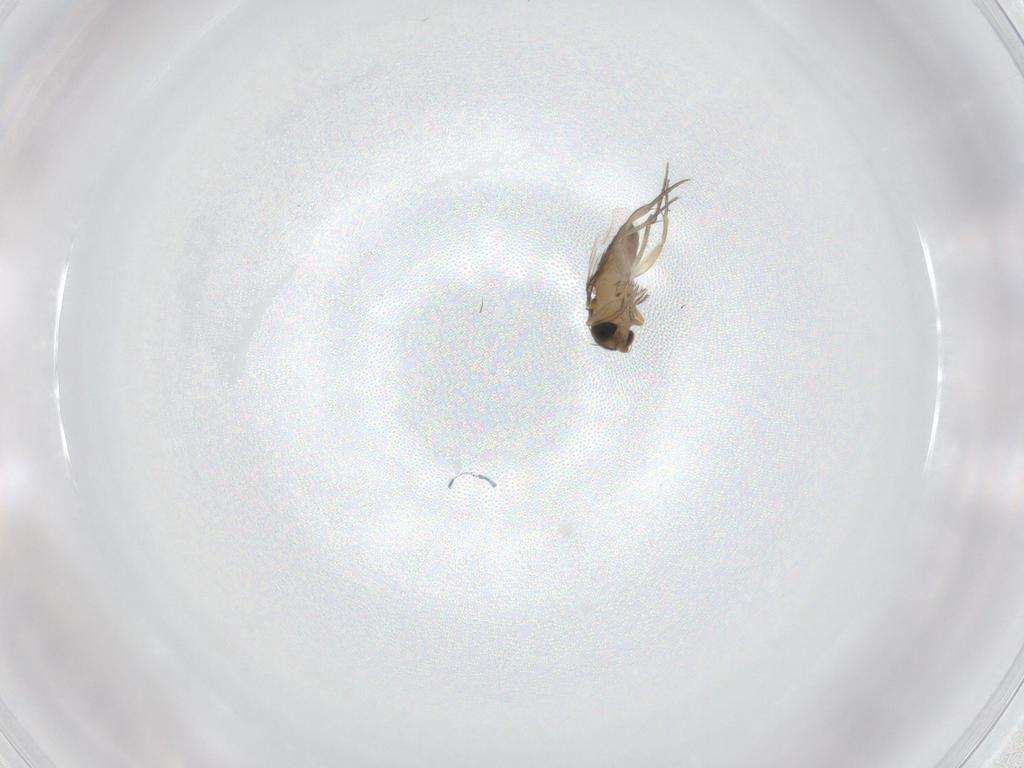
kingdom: Animalia
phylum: Arthropoda
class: Insecta
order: Diptera
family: Phoridae
